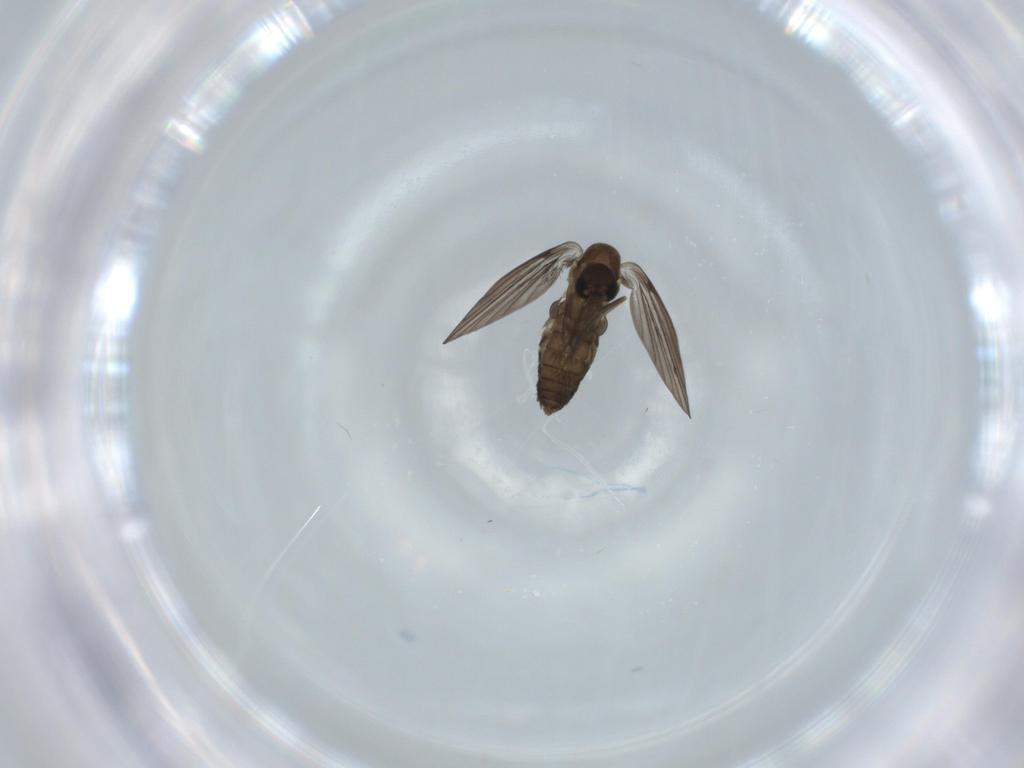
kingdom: Animalia
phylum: Arthropoda
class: Insecta
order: Diptera
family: Psychodidae
